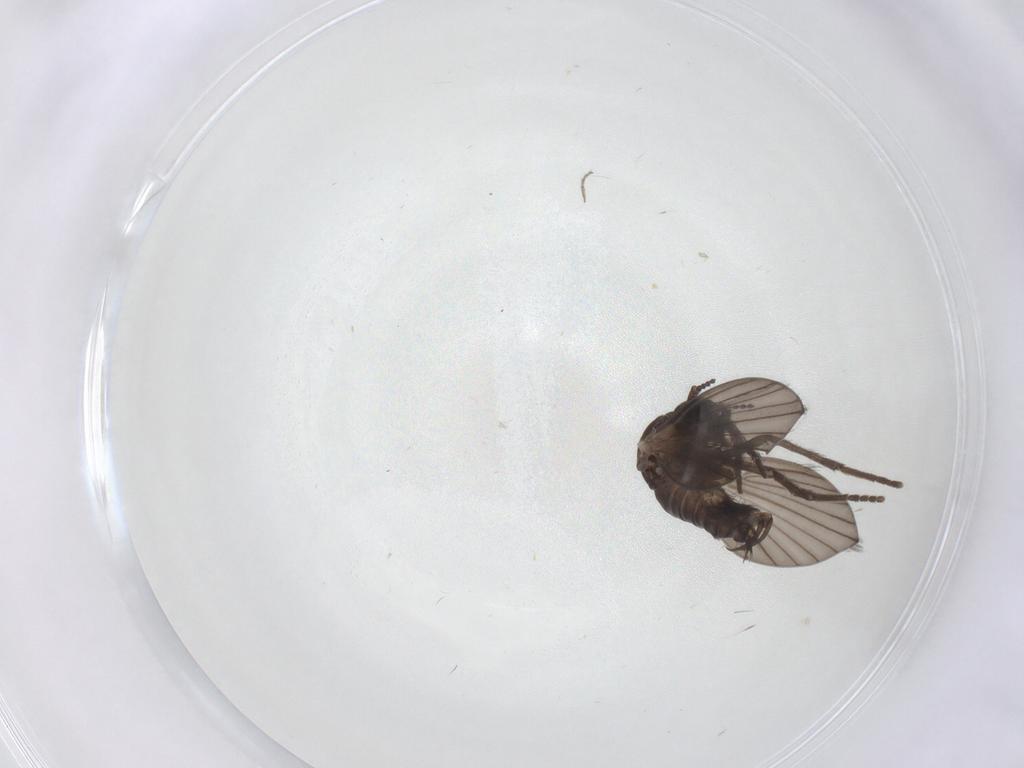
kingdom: Animalia
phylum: Arthropoda
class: Insecta
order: Diptera
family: Psychodidae
